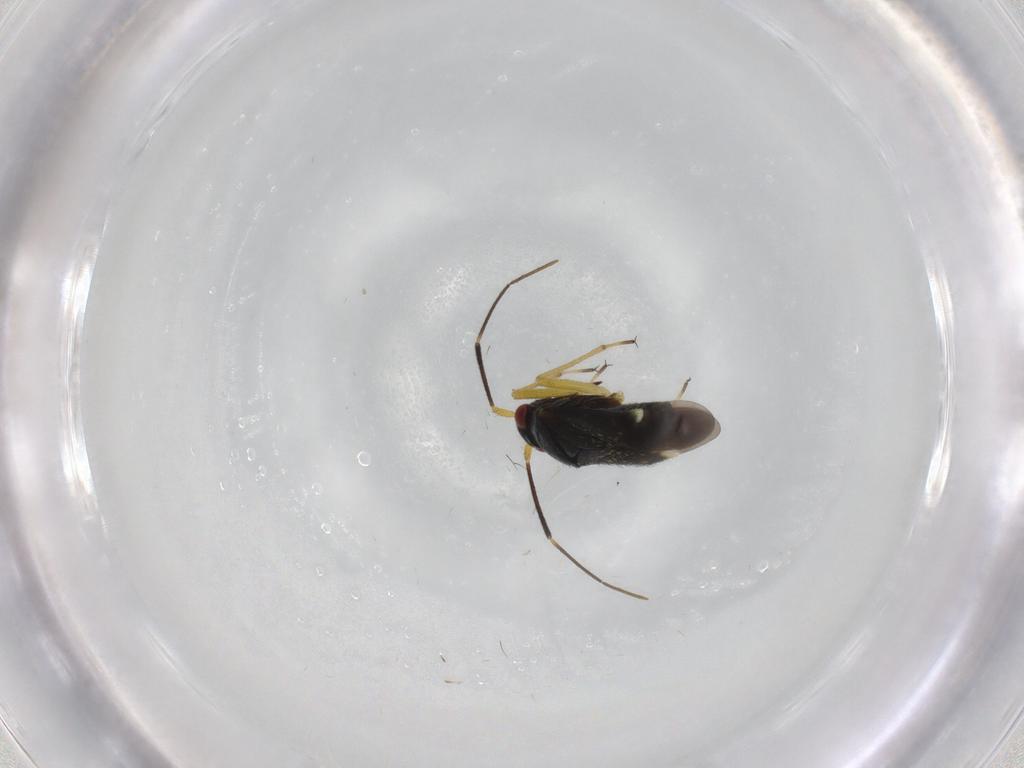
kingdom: Animalia
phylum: Arthropoda
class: Insecta
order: Hemiptera
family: Miridae
